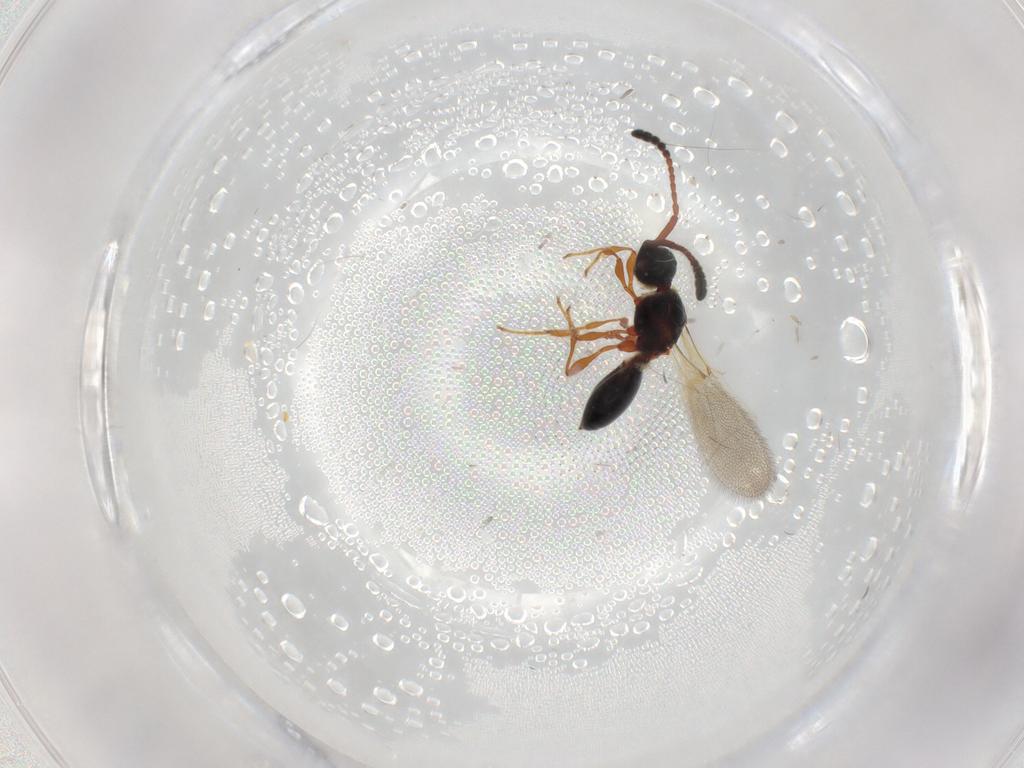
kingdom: Animalia
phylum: Arthropoda
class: Insecta
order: Hymenoptera
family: Diapriidae
